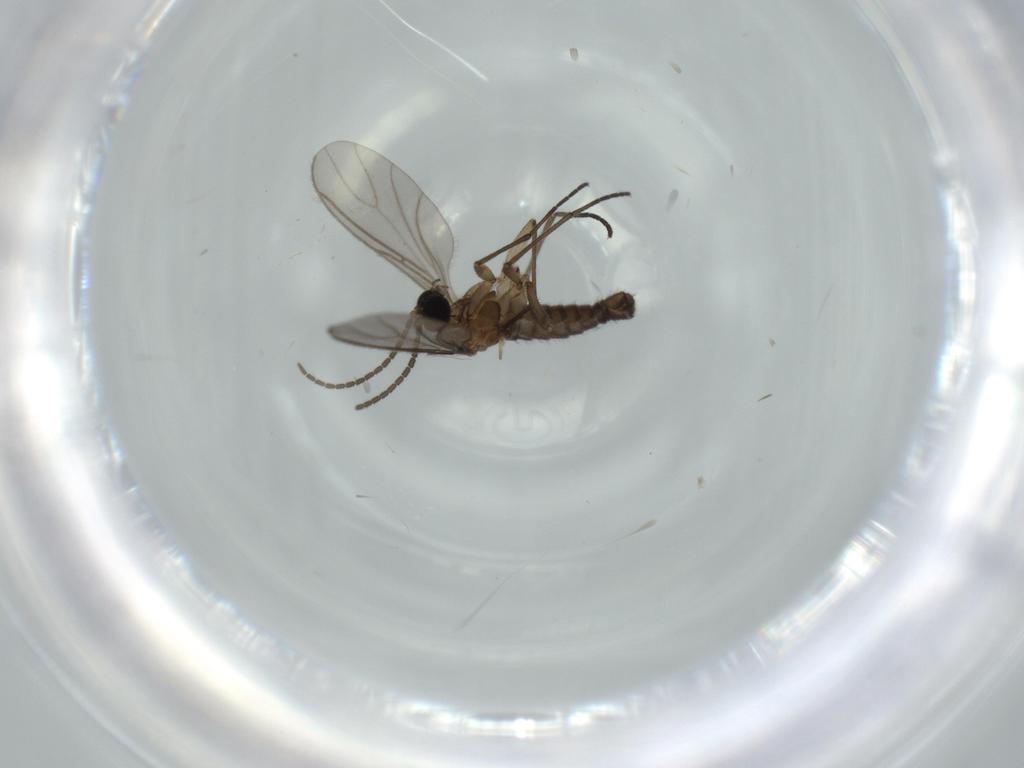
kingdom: Animalia
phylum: Arthropoda
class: Insecta
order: Diptera
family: Sciaridae
